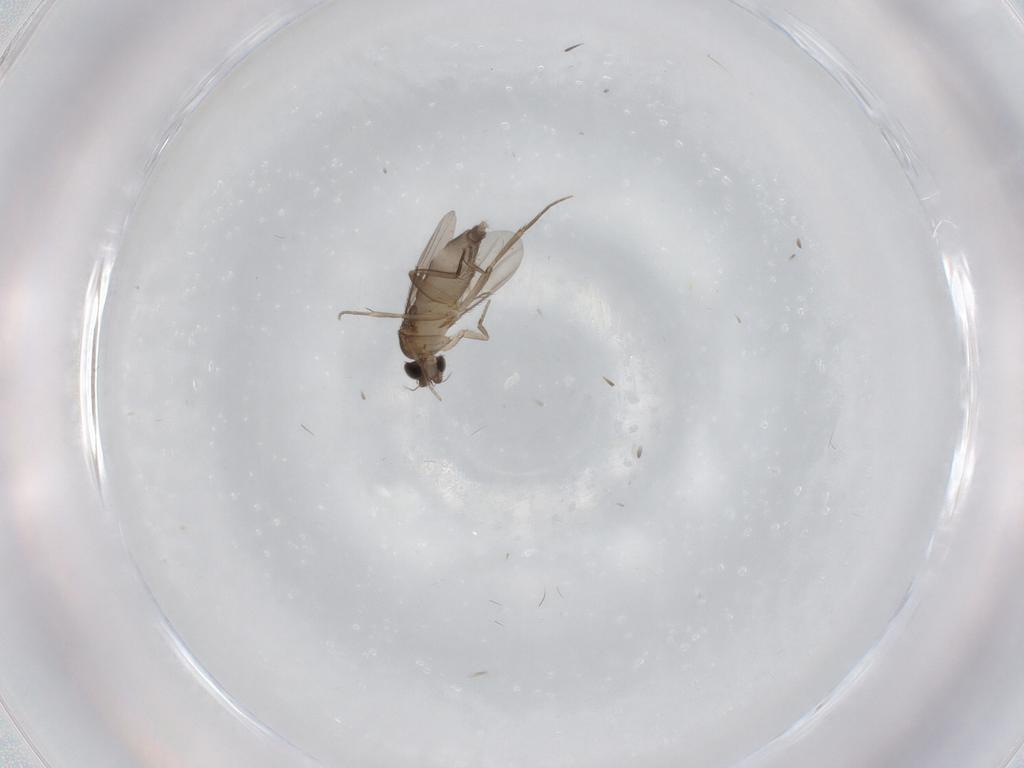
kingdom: Animalia
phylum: Arthropoda
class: Insecta
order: Diptera
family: Phoridae
